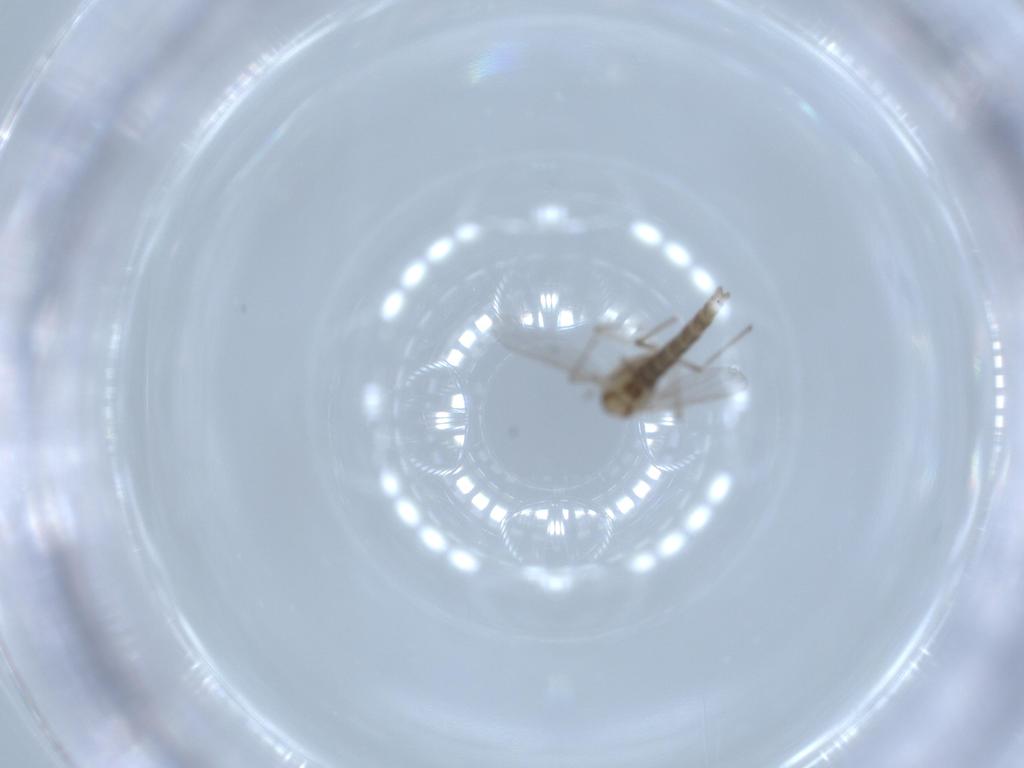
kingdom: Animalia
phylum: Arthropoda
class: Insecta
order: Diptera
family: Chironomidae
